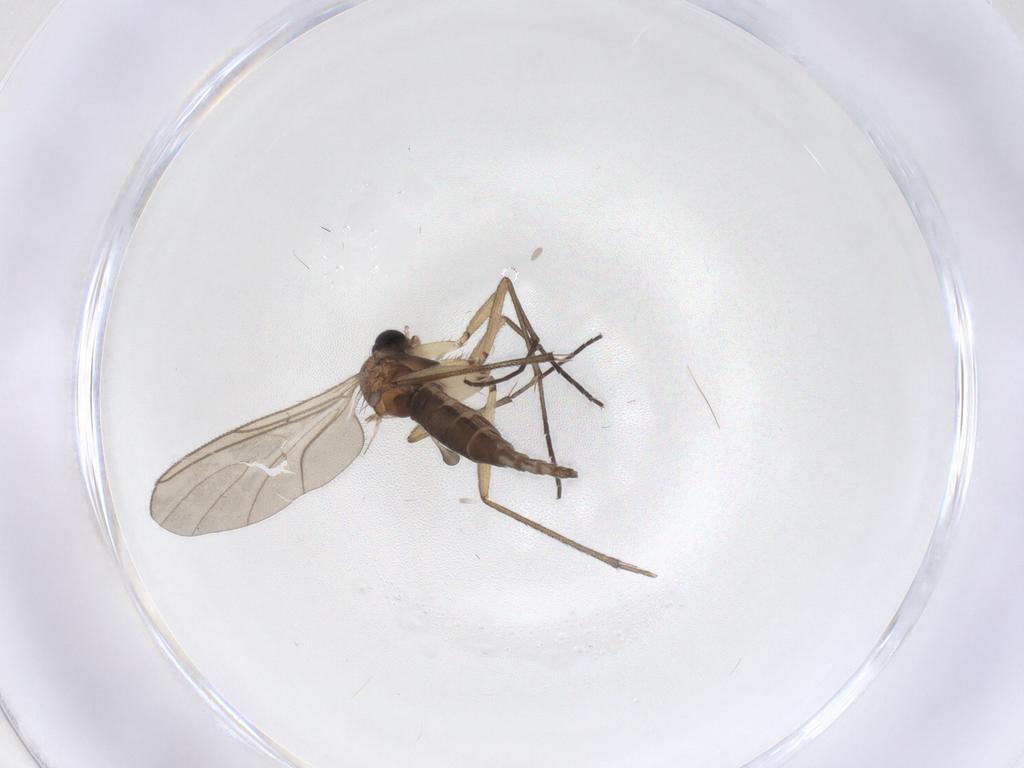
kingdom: Animalia
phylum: Arthropoda
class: Insecta
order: Diptera
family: Sciaridae
